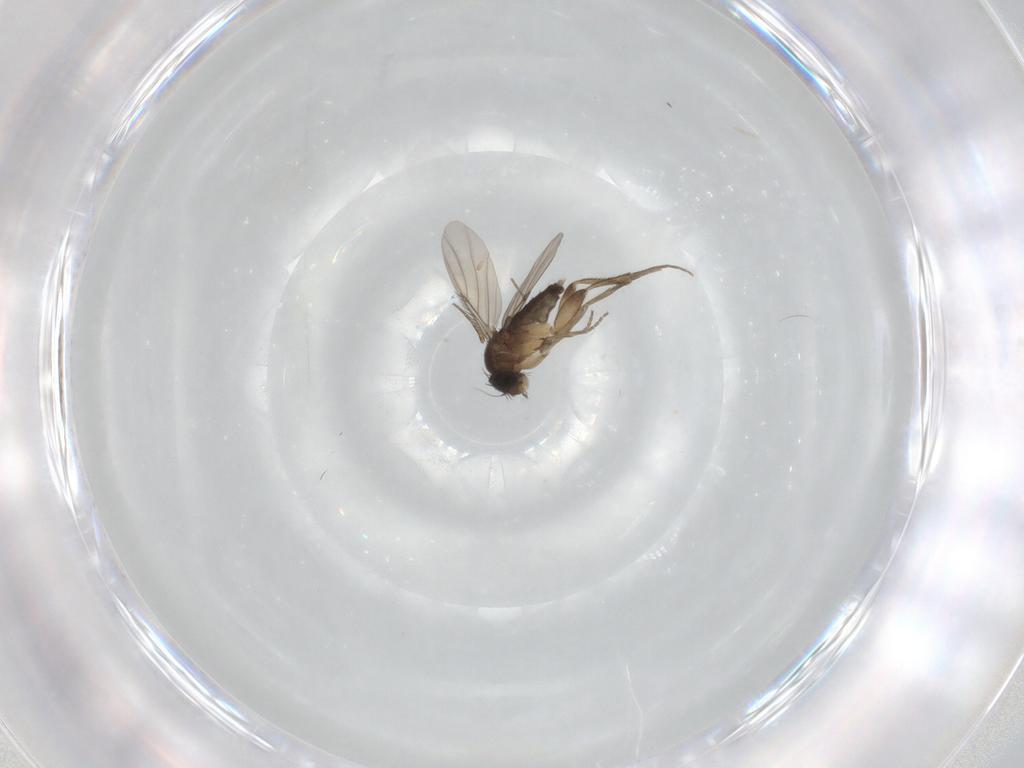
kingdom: Animalia
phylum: Arthropoda
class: Insecta
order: Diptera
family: Phoridae
